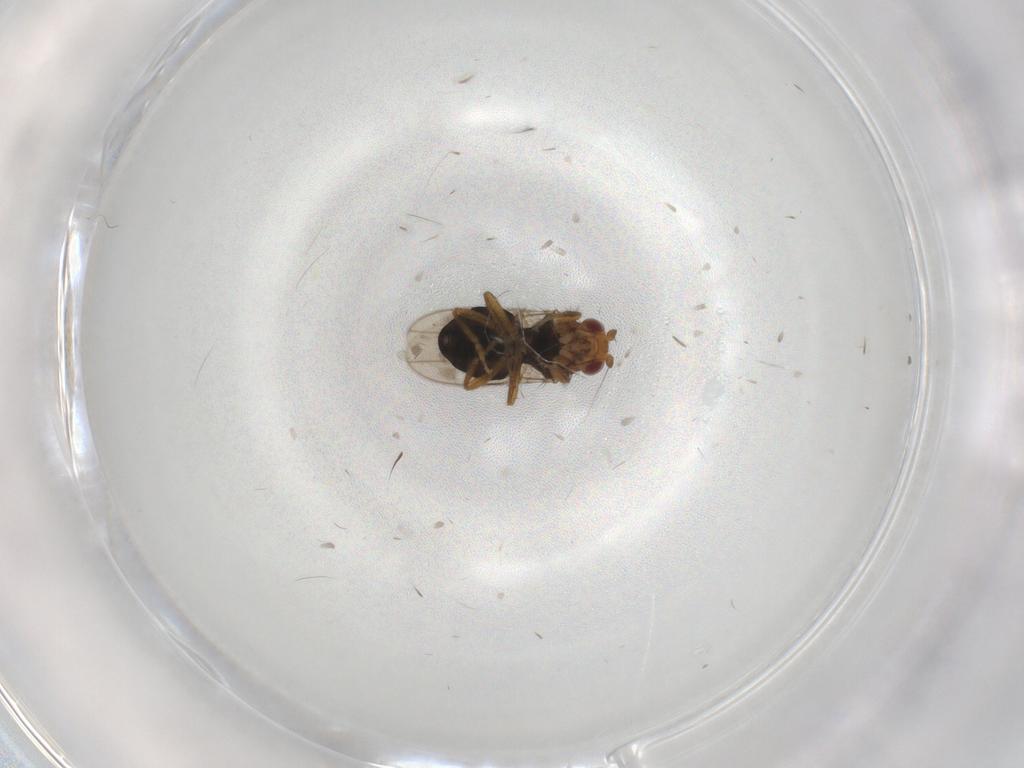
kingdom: Animalia
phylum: Arthropoda
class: Insecta
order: Diptera
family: Sphaeroceridae
